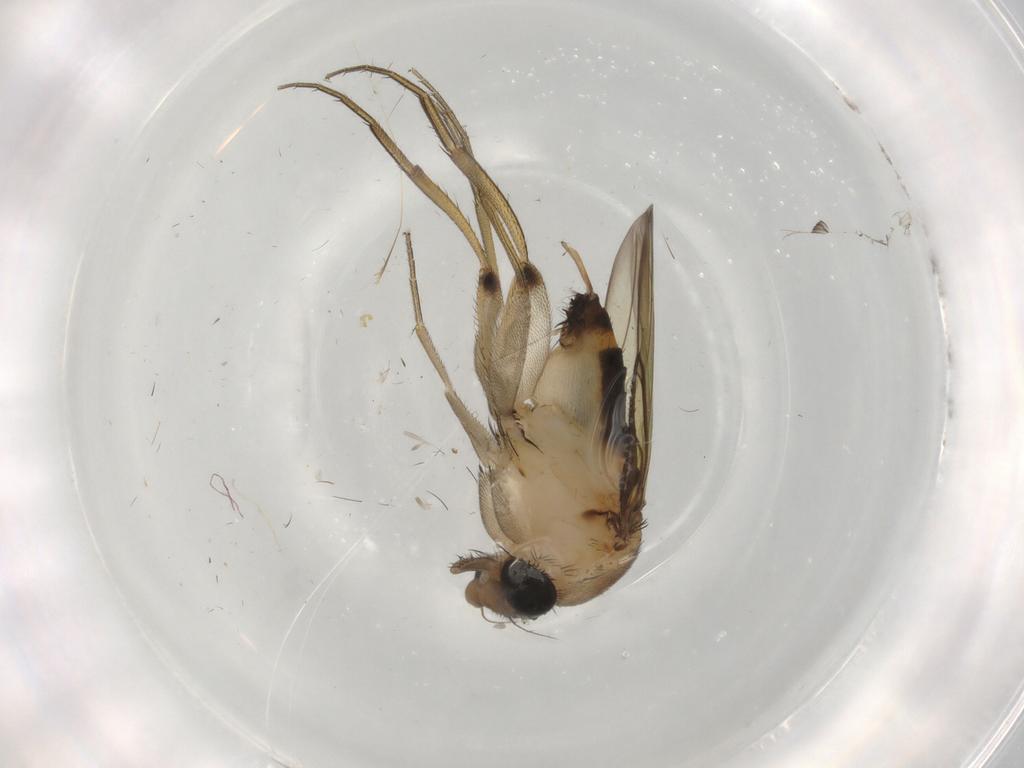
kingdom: Animalia
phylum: Arthropoda
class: Insecta
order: Diptera
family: Phoridae
